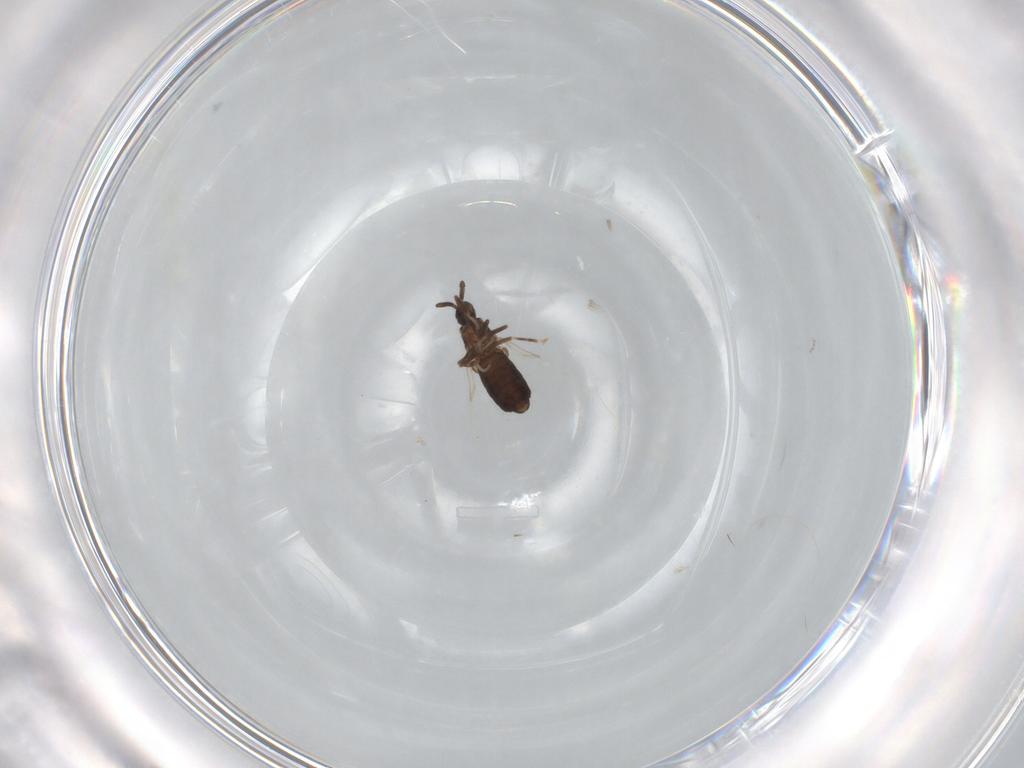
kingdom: Animalia
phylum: Arthropoda
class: Insecta
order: Diptera
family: Scatopsidae
